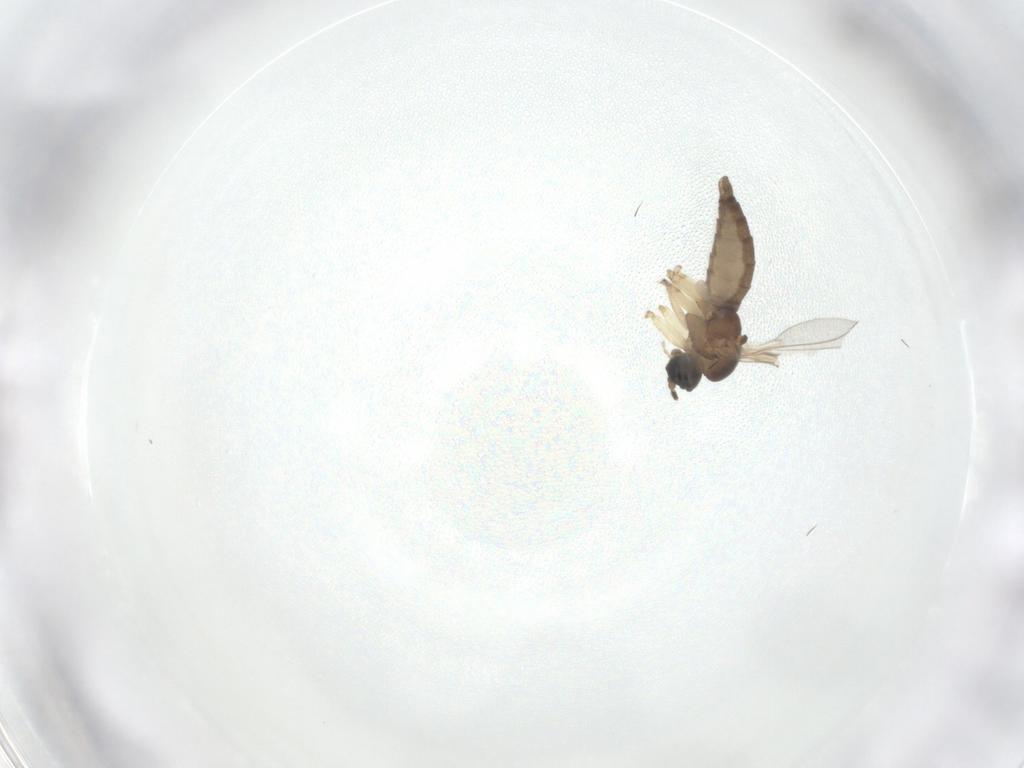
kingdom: Animalia
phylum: Arthropoda
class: Insecta
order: Diptera
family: Sciaridae
